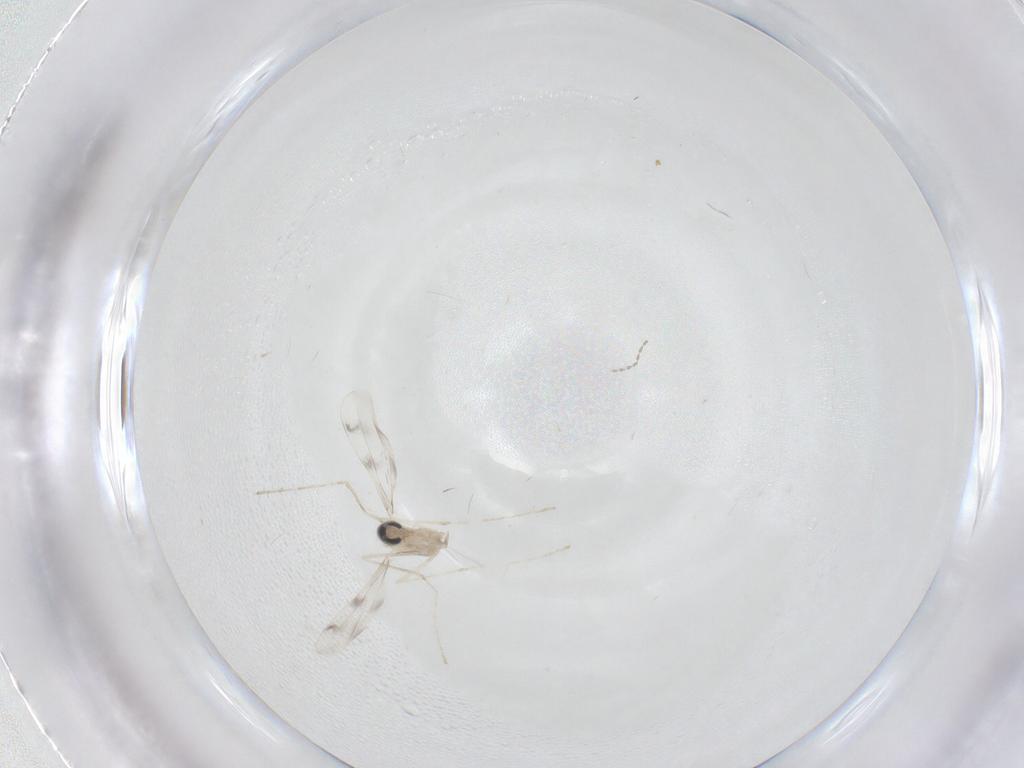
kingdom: Animalia
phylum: Arthropoda
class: Insecta
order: Diptera
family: Cecidomyiidae
